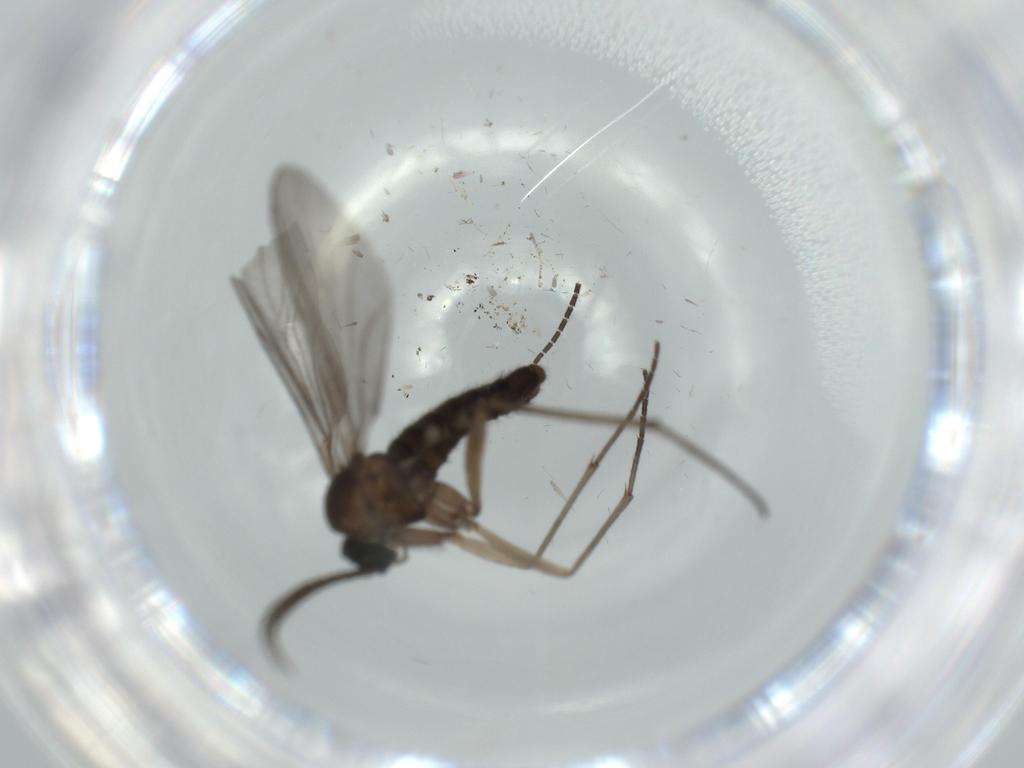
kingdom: Animalia
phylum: Arthropoda
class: Insecta
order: Diptera
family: Sciaridae
